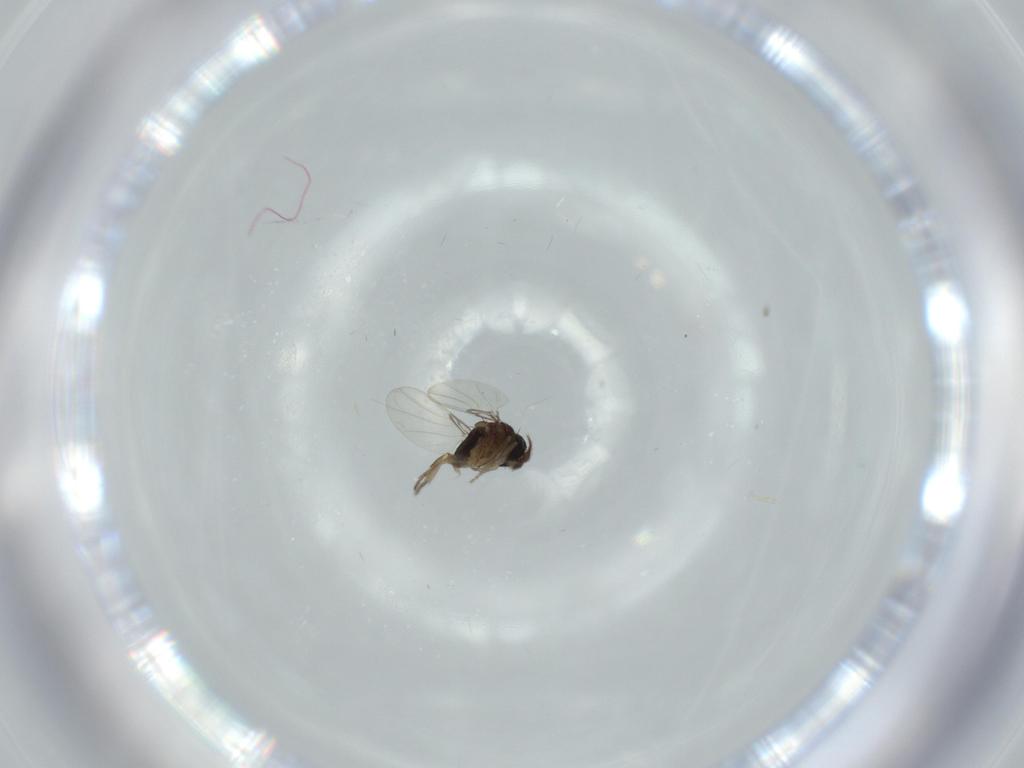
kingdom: Animalia
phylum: Arthropoda
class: Insecta
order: Diptera
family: Phoridae
